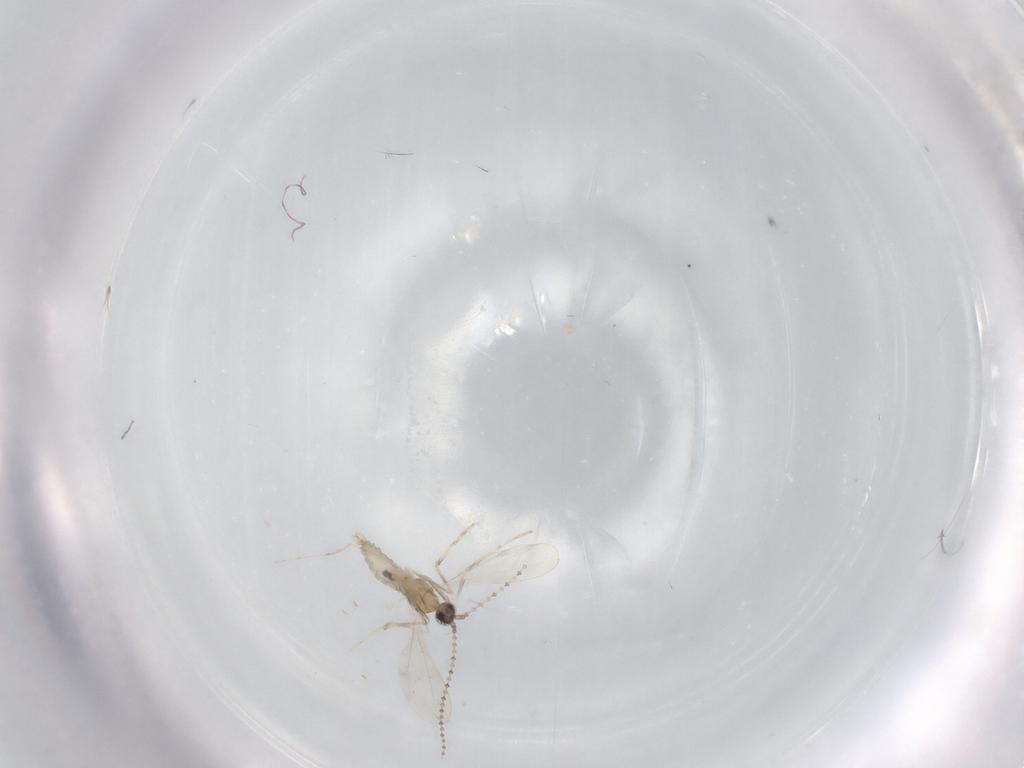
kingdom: Animalia
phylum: Arthropoda
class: Insecta
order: Diptera
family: Cecidomyiidae
